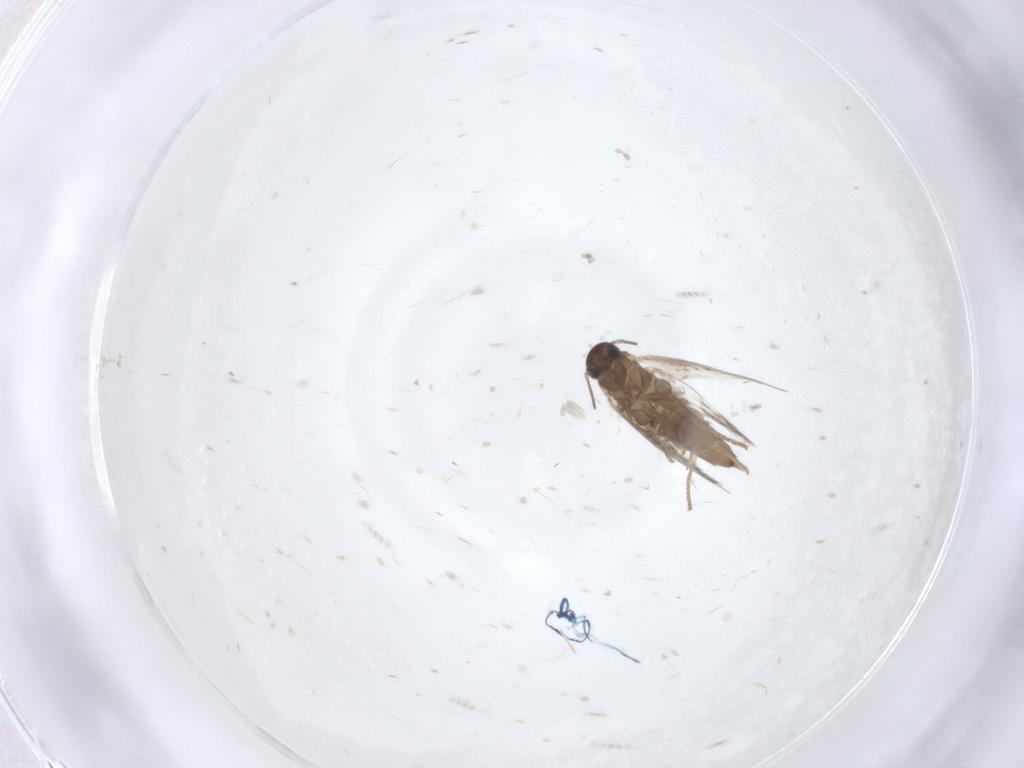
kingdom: Animalia
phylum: Arthropoda
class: Insecta
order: Lepidoptera
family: Heliozelidae
